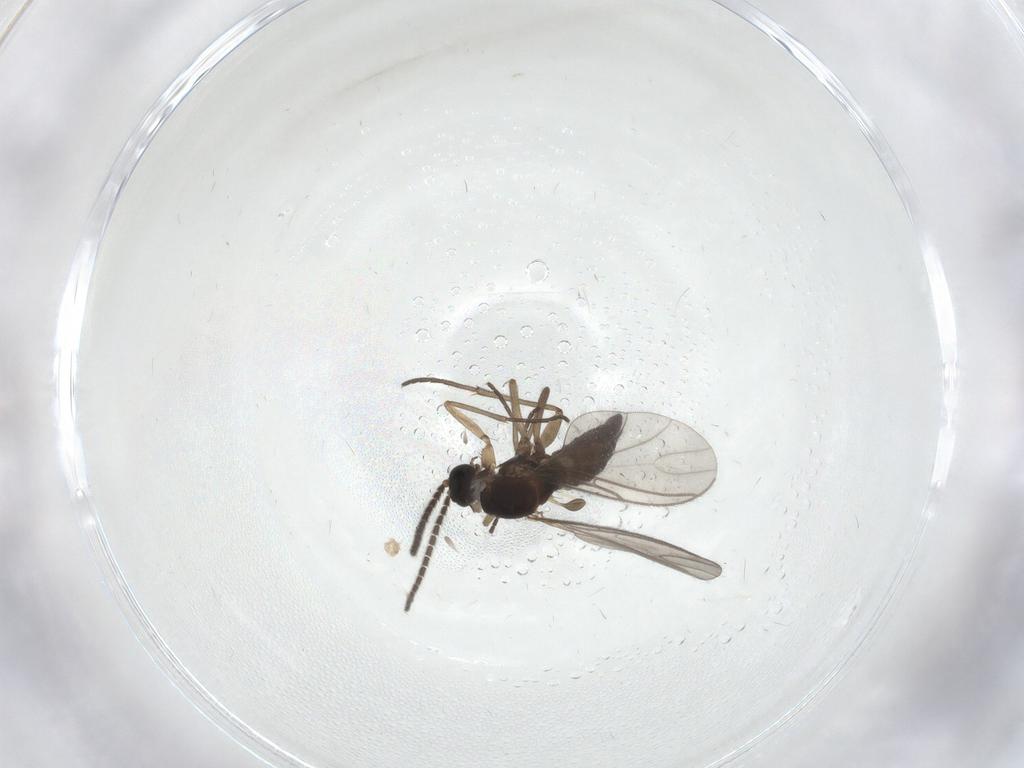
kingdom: Animalia
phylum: Arthropoda
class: Insecta
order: Diptera
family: Sciaridae
